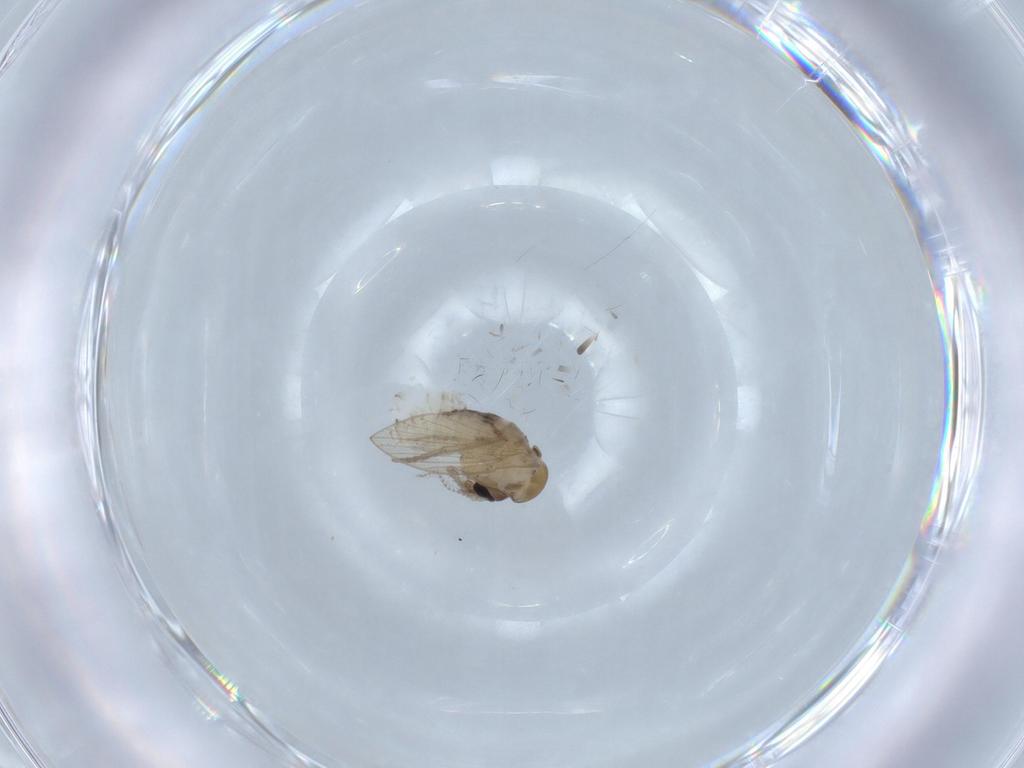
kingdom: Animalia
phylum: Arthropoda
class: Insecta
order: Diptera
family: Psychodidae
